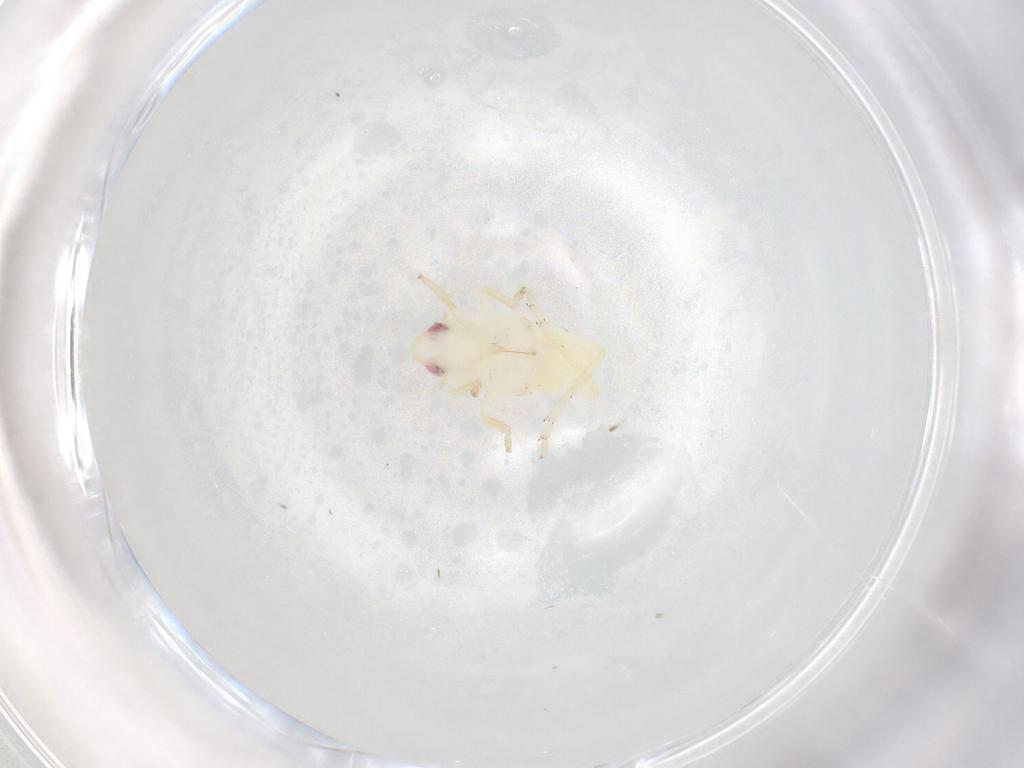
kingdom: Animalia
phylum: Arthropoda
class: Insecta
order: Hemiptera
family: Tropiduchidae
